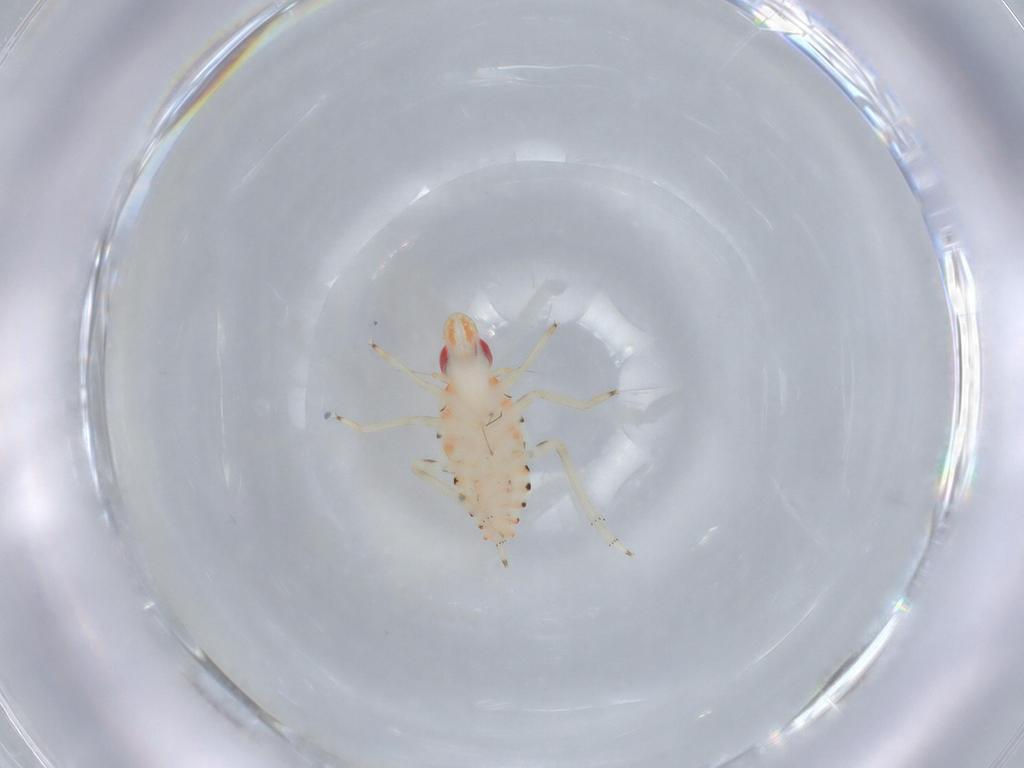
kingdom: Animalia
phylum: Arthropoda
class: Insecta
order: Hemiptera
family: Tropiduchidae
